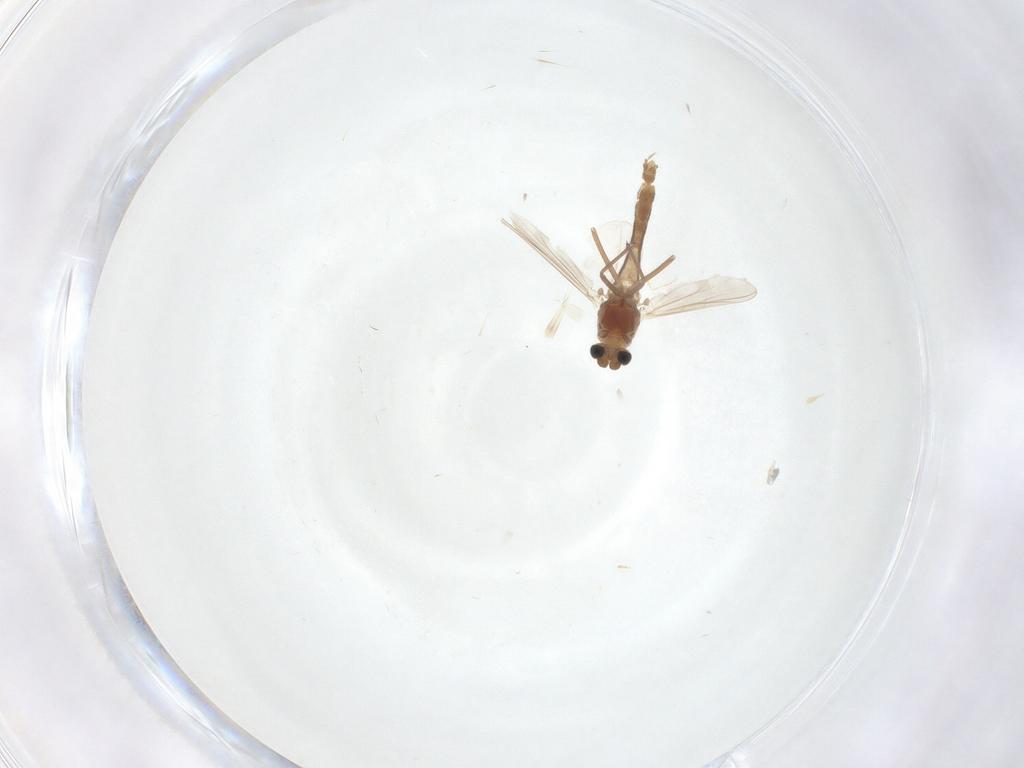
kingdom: Animalia
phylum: Arthropoda
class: Insecta
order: Diptera
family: Chironomidae
